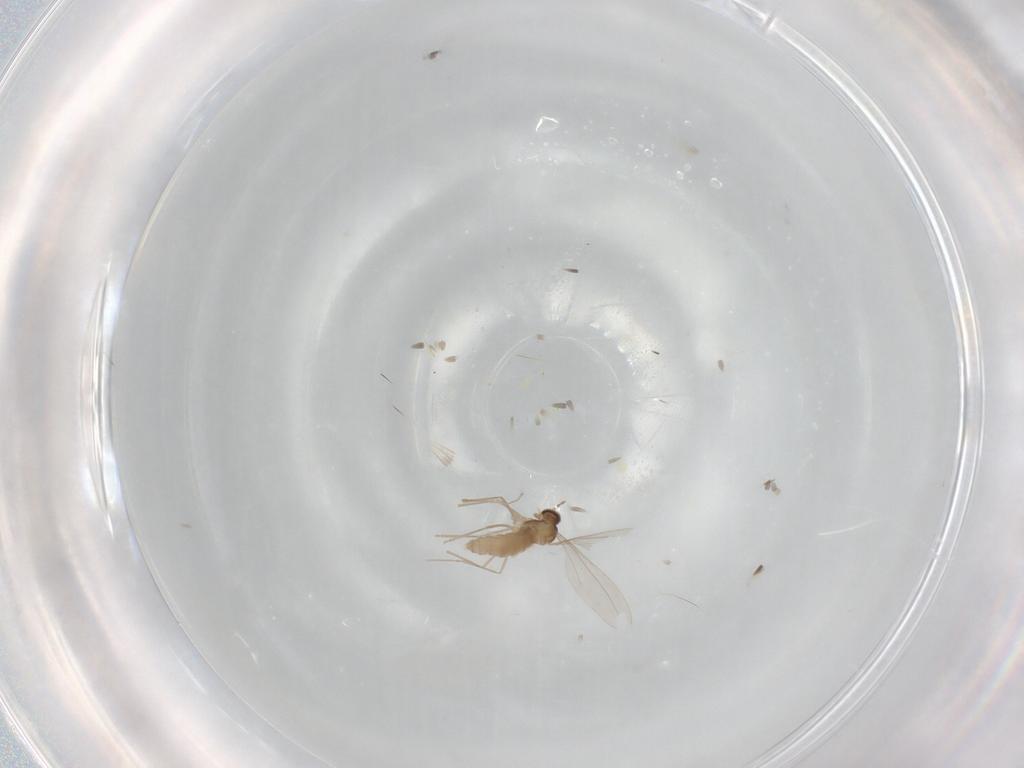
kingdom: Animalia
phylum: Arthropoda
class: Insecta
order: Diptera
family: Cecidomyiidae
